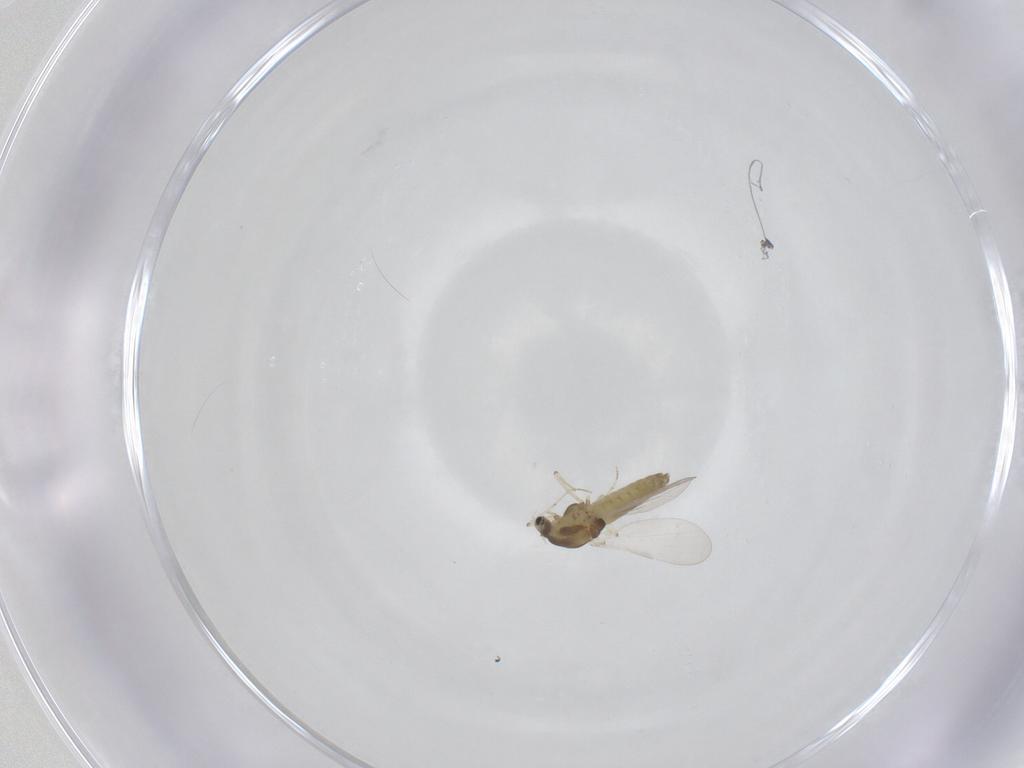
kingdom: Animalia
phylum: Arthropoda
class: Insecta
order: Diptera
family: Chironomidae
